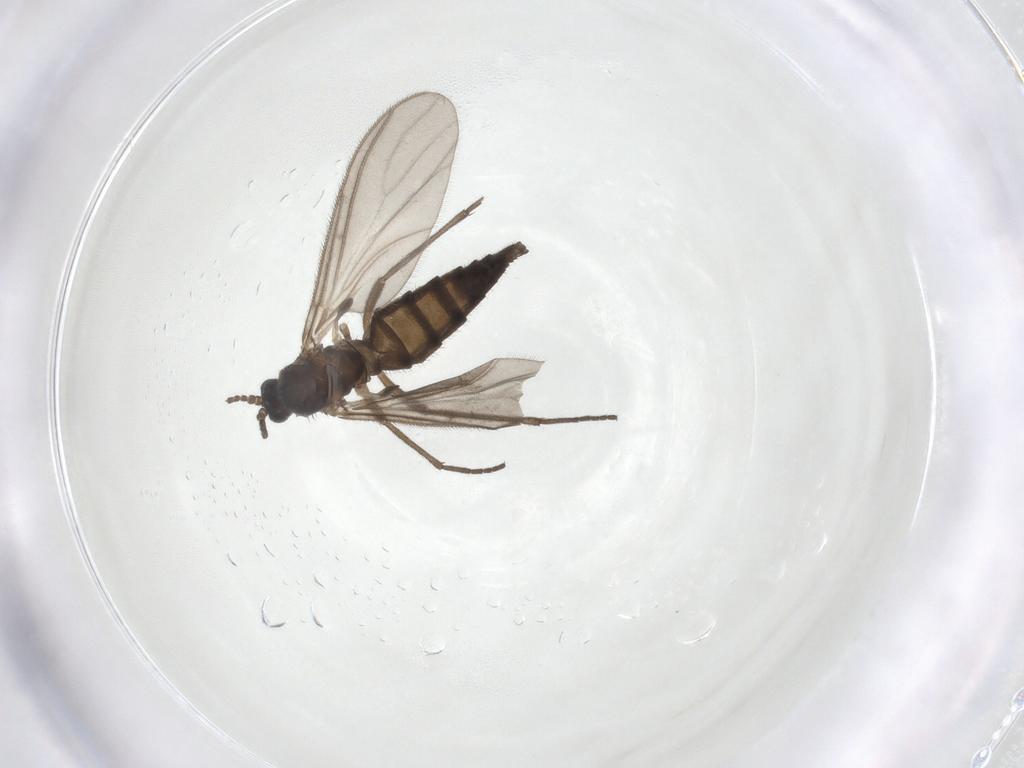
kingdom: Animalia
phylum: Arthropoda
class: Insecta
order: Diptera
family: Sciaridae
